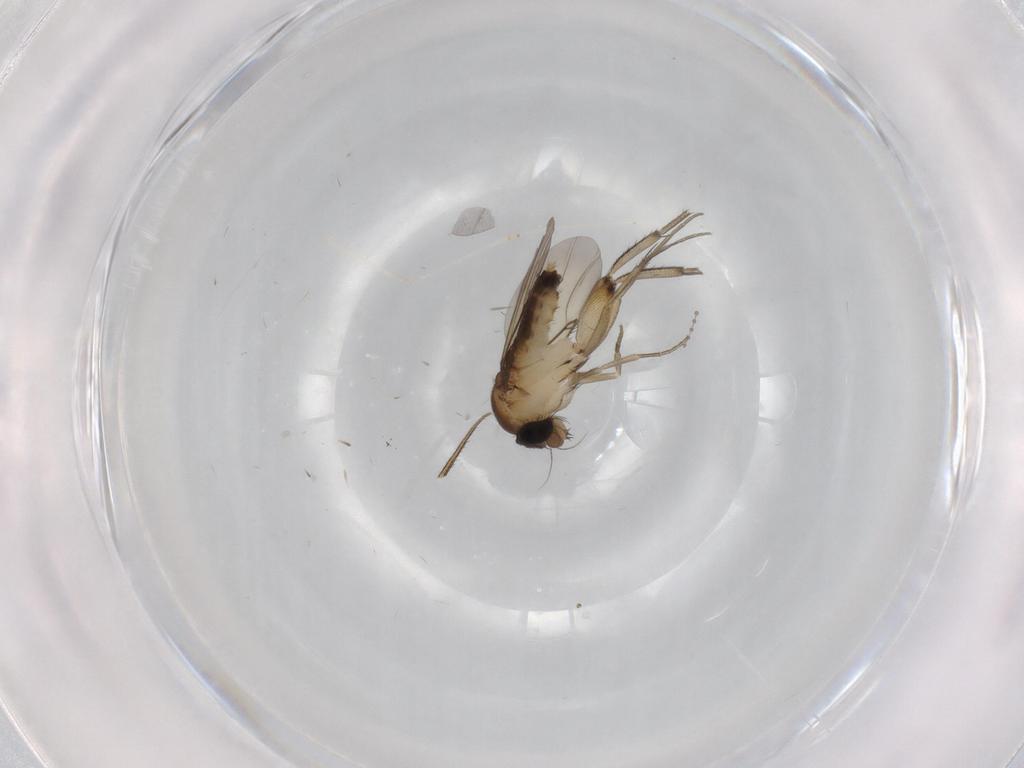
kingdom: Animalia
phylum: Arthropoda
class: Insecta
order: Diptera
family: Phoridae
